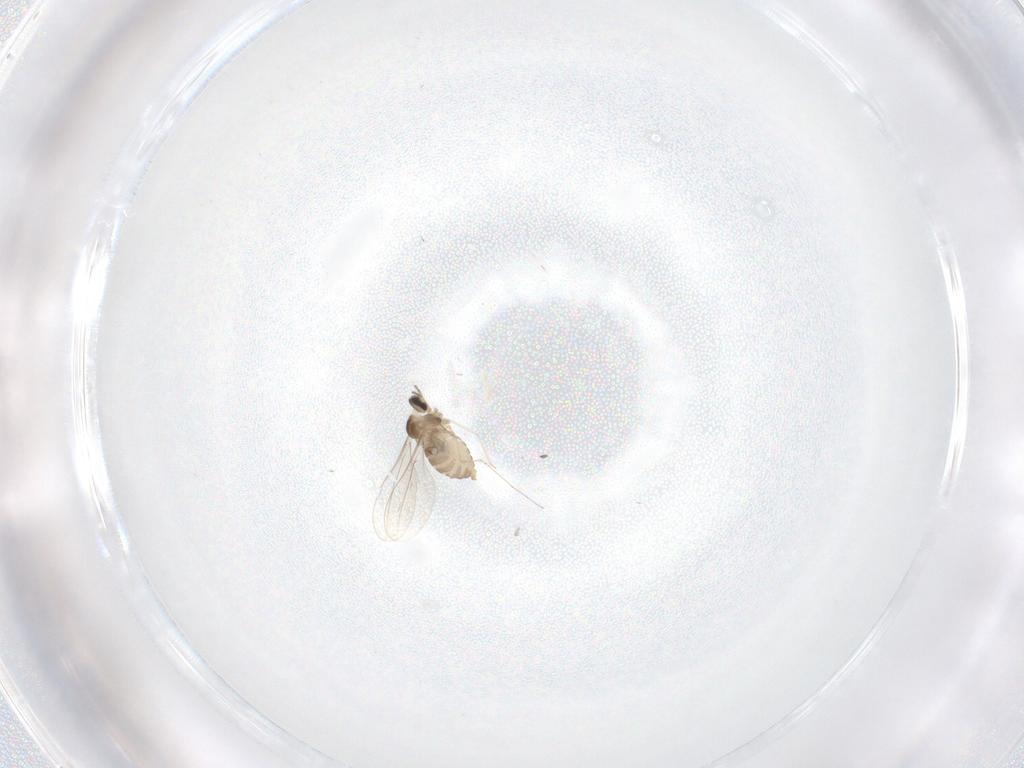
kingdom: Animalia
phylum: Arthropoda
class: Insecta
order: Diptera
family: Cecidomyiidae
